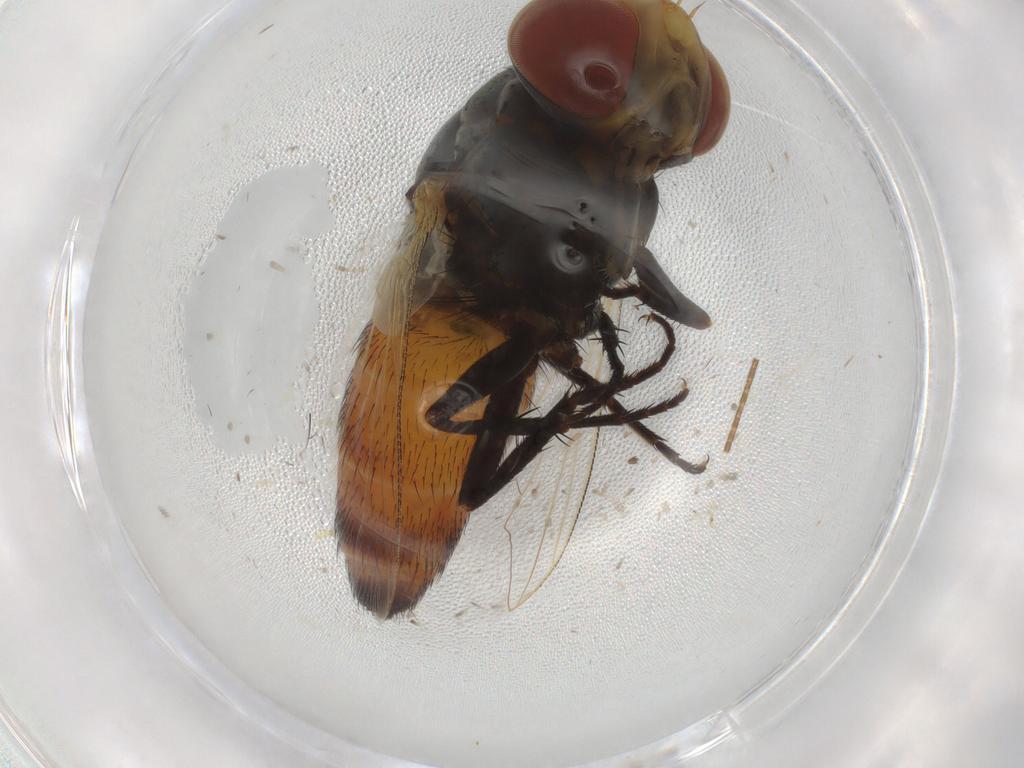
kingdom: Animalia
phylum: Arthropoda
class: Insecta
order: Diptera
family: Sarcophagidae
